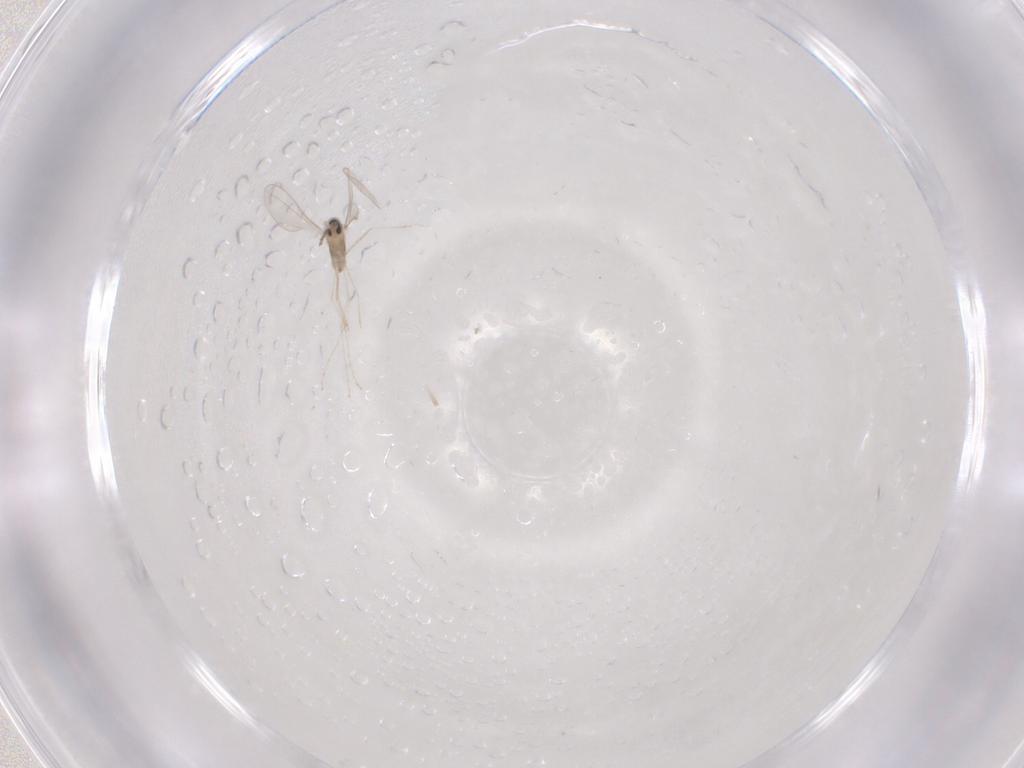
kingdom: Animalia
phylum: Arthropoda
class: Insecta
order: Diptera
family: Cecidomyiidae
